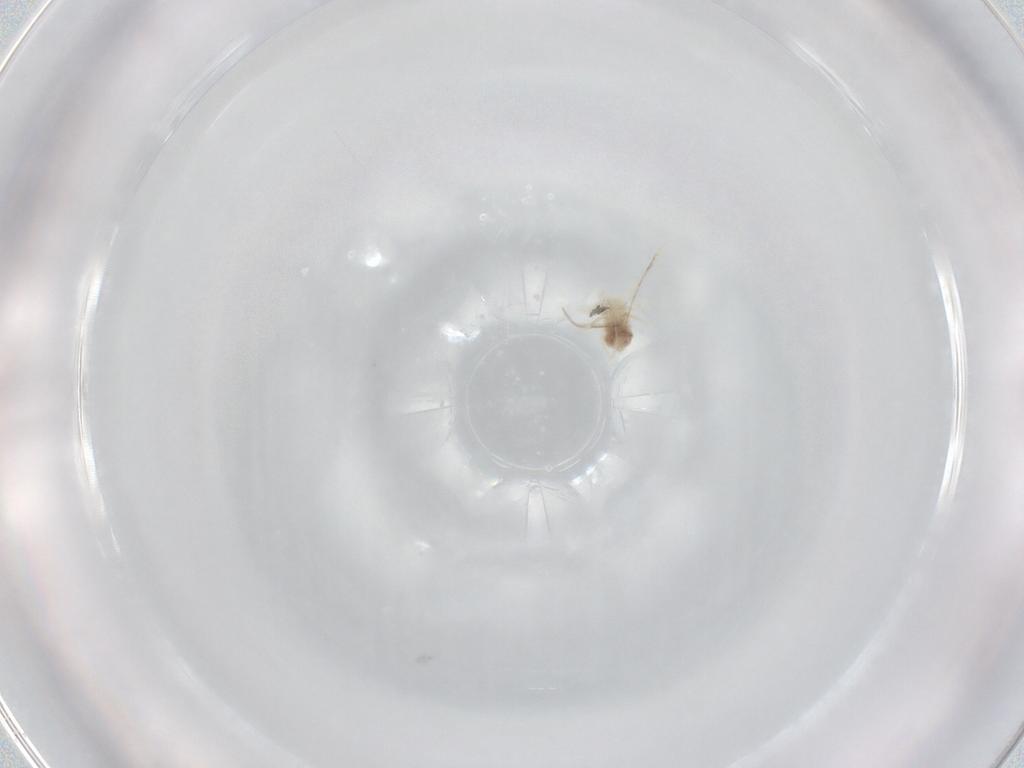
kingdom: Animalia
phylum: Arthropoda
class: Arachnida
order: Trombidiformes
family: Anystidae
